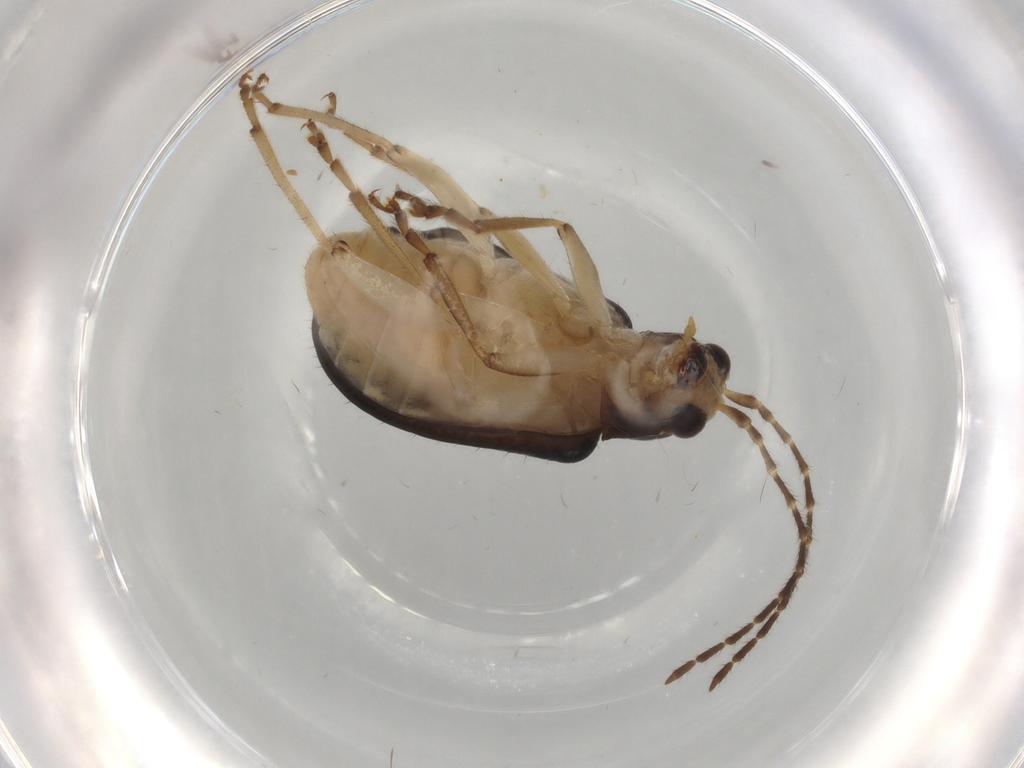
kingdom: Animalia
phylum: Arthropoda
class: Insecta
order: Coleoptera
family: Chrysomelidae
